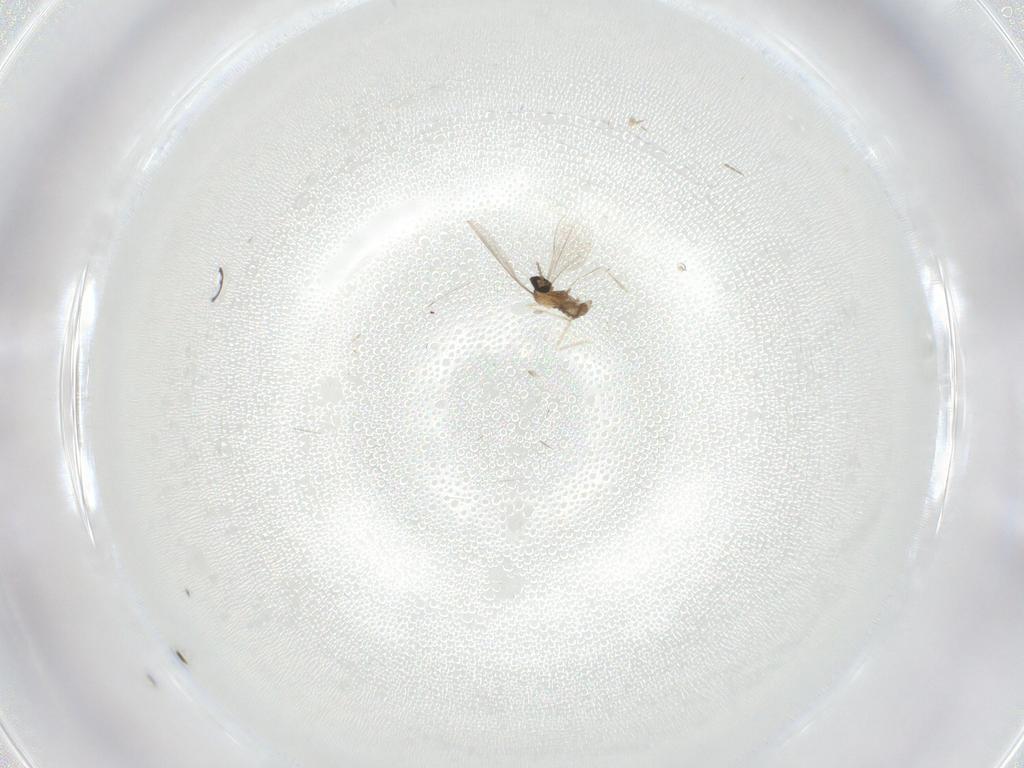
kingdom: Animalia
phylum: Arthropoda
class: Insecta
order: Diptera
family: Cecidomyiidae
